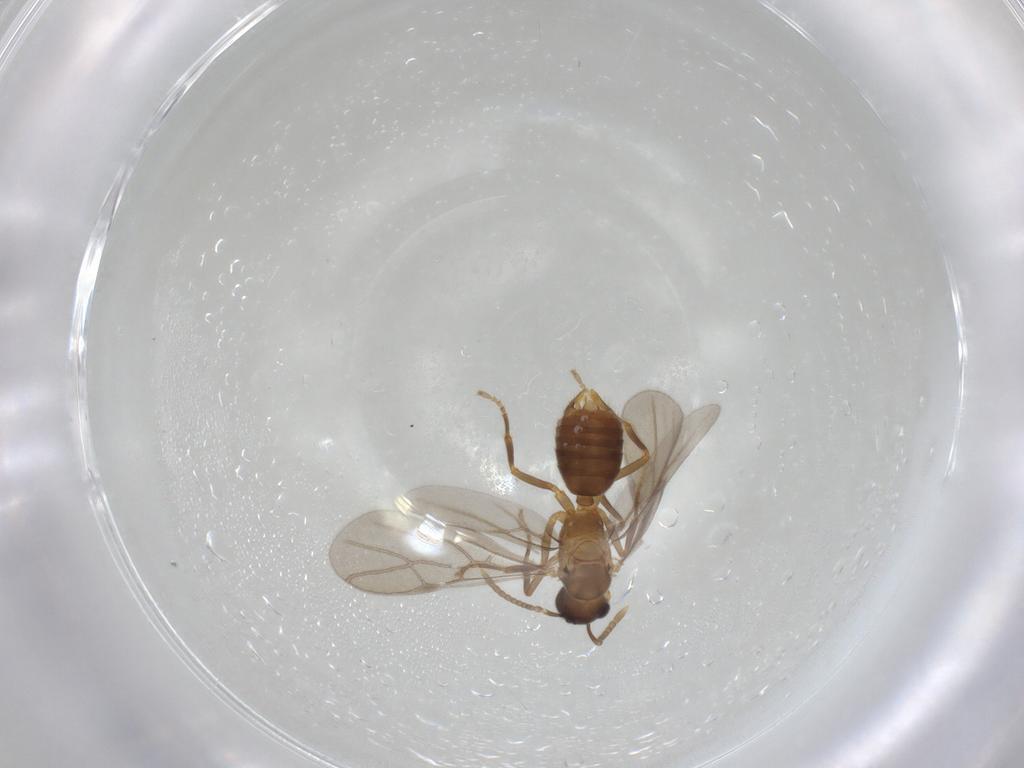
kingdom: Animalia
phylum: Arthropoda
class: Insecta
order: Hymenoptera
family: Formicidae
